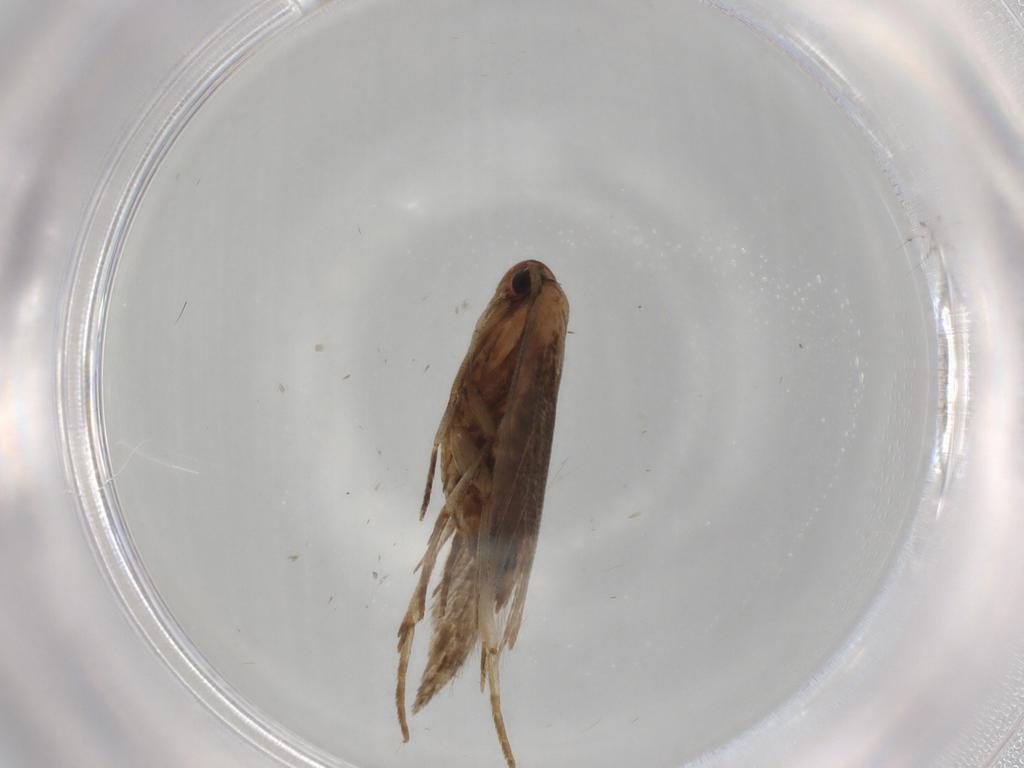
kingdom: Animalia
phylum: Arthropoda
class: Insecta
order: Lepidoptera
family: Cosmopterigidae
